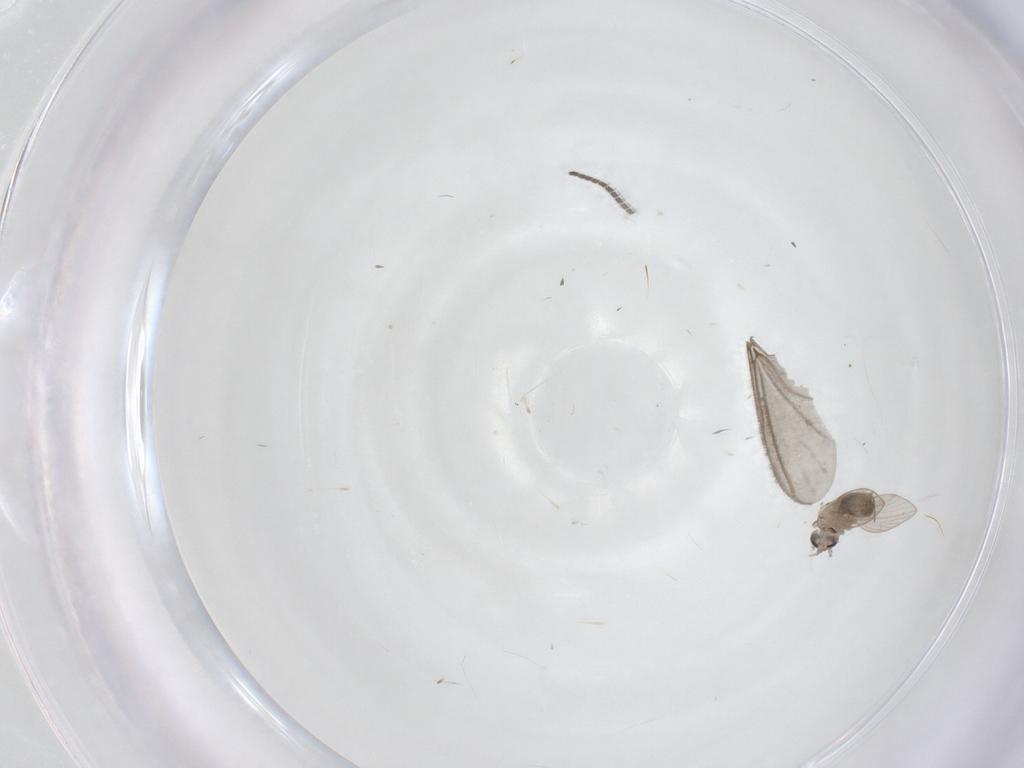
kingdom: Animalia
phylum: Arthropoda
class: Insecta
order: Diptera
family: Psychodidae
